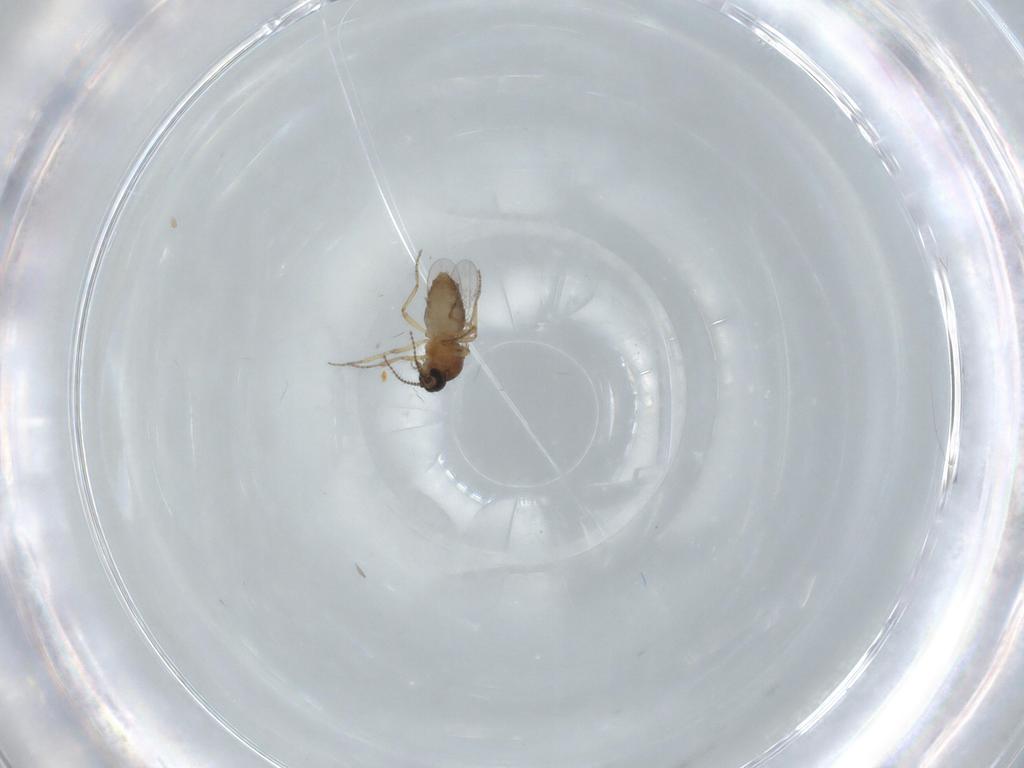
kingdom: Animalia
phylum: Arthropoda
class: Insecta
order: Diptera
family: Ceratopogonidae
